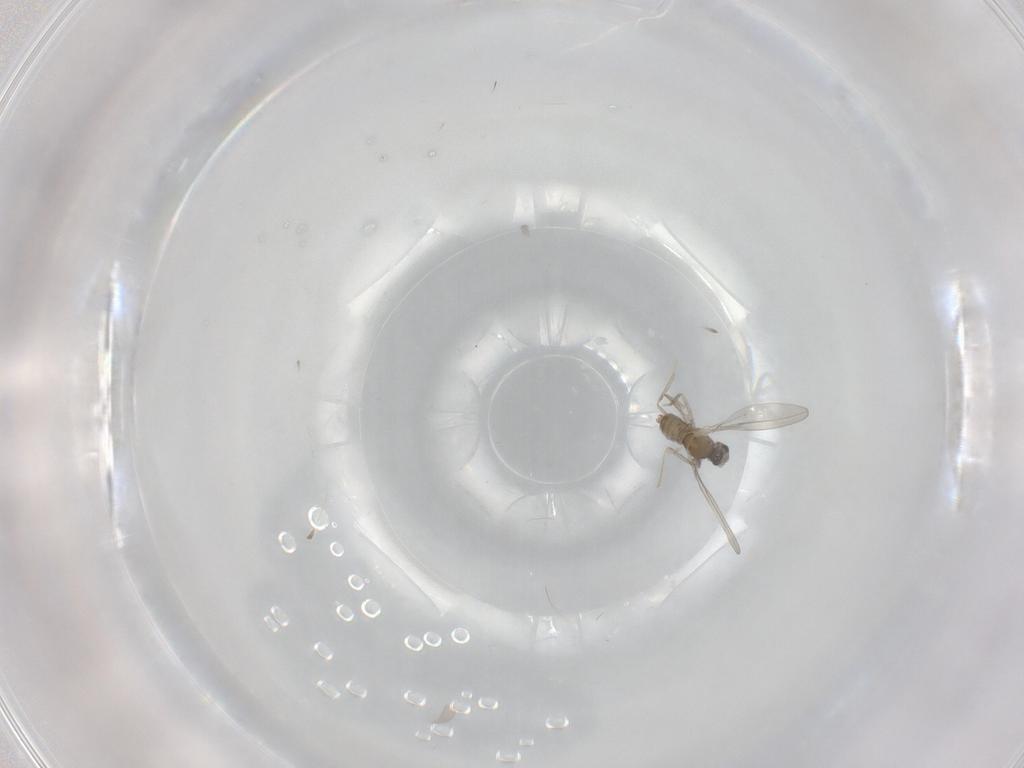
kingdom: Animalia
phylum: Arthropoda
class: Insecta
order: Diptera
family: Cecidomyiidae
